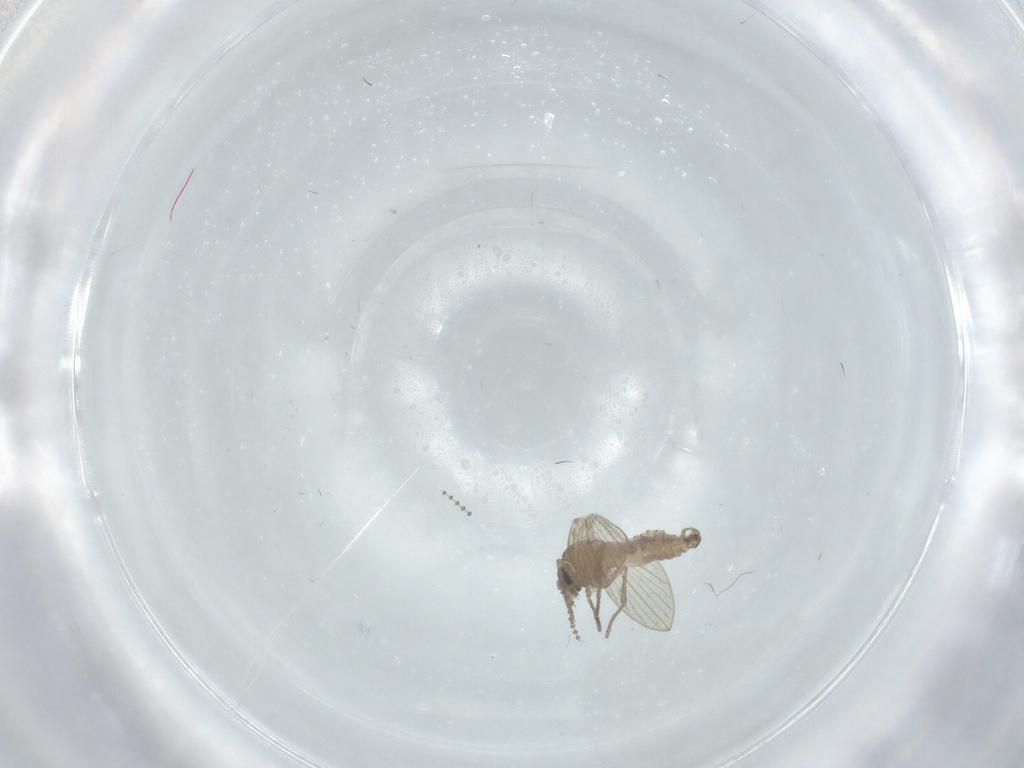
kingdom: Animalia
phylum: Arthropoda
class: Insecta
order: Diptera
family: Psychodidae
